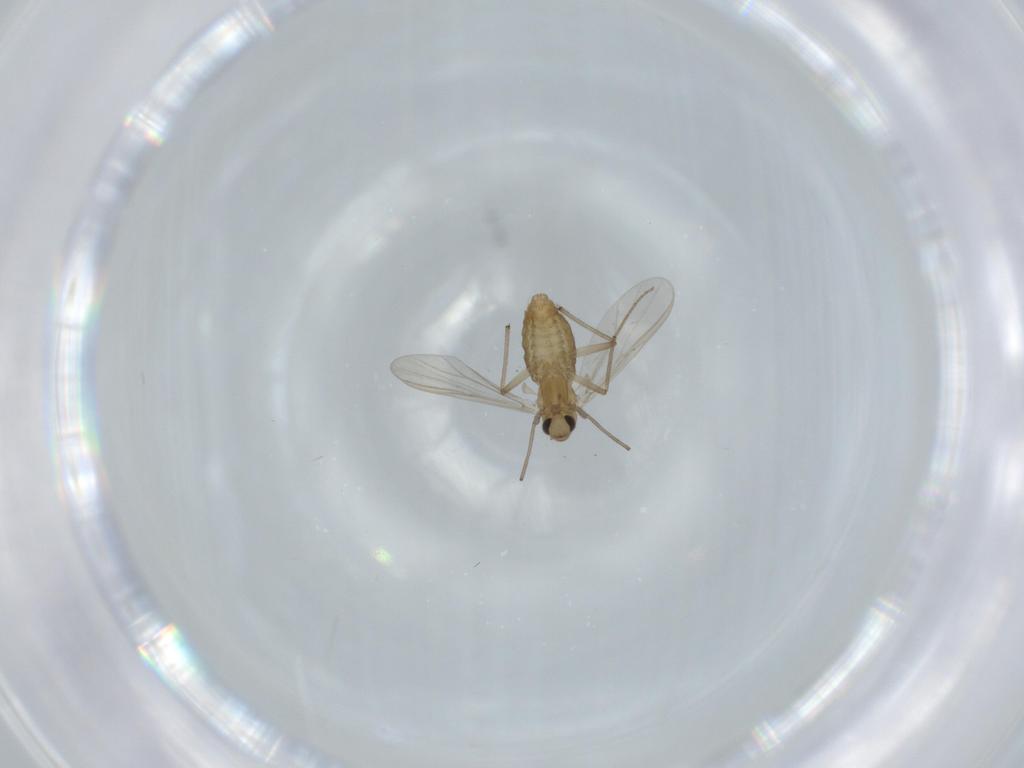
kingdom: Animalia
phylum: Arthropoda
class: Insecta
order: Diptera
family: Chironomidae
